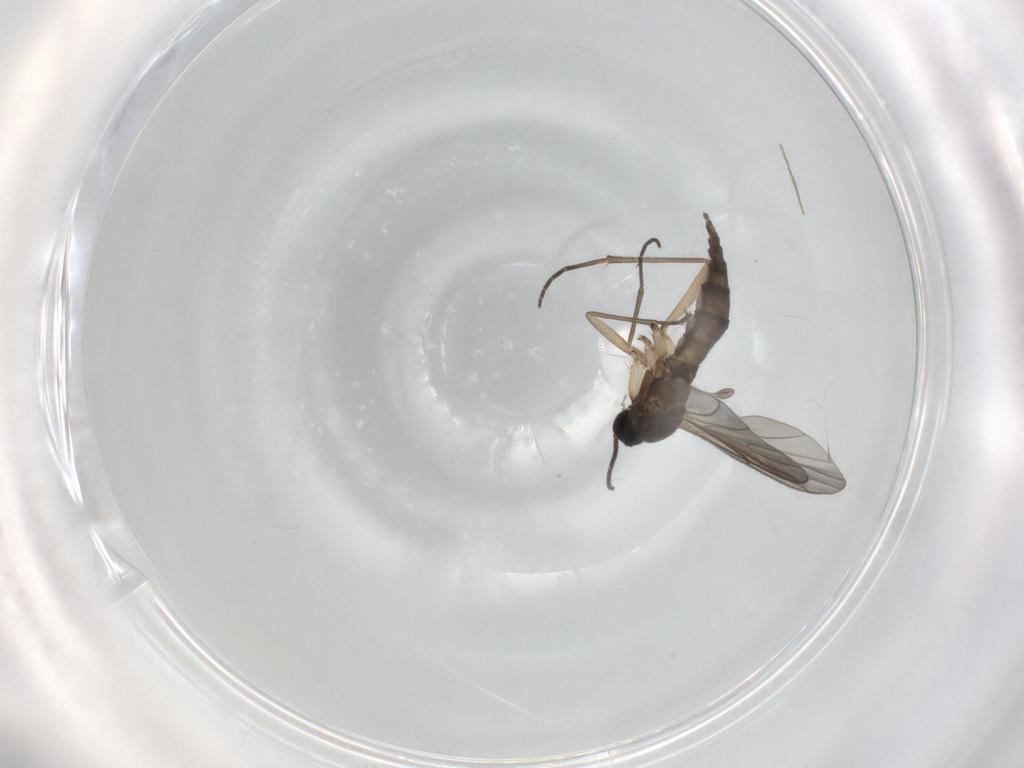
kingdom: Animalia
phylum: Arthropoda
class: Insecta
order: Diptera
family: Sciaridae
